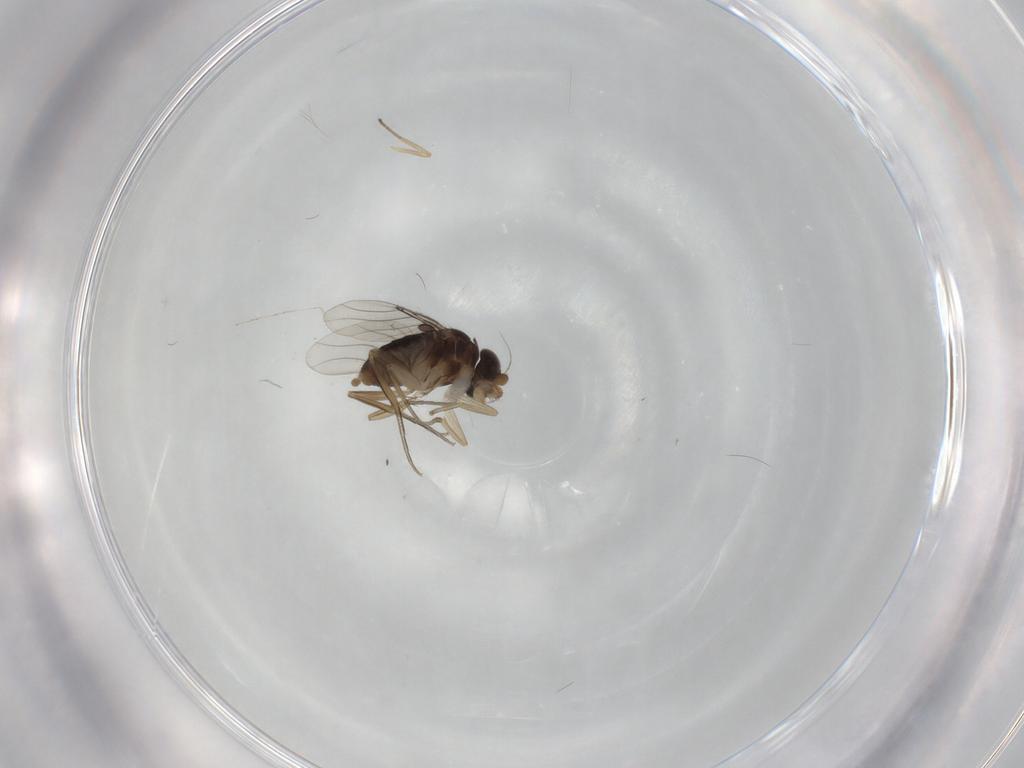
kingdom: Animalia
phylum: Arthropoda
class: Insecta
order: Diptera
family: Phoridae
